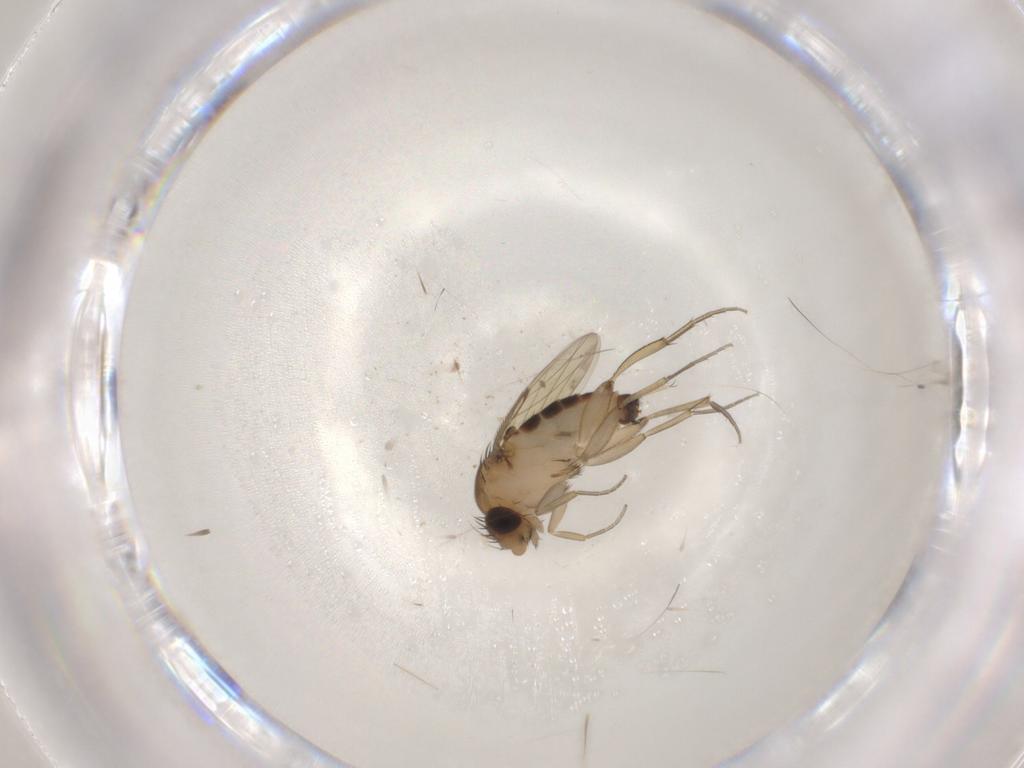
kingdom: Animalia
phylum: Arthropoda
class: Insecta
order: Diptera
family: Phoridae
